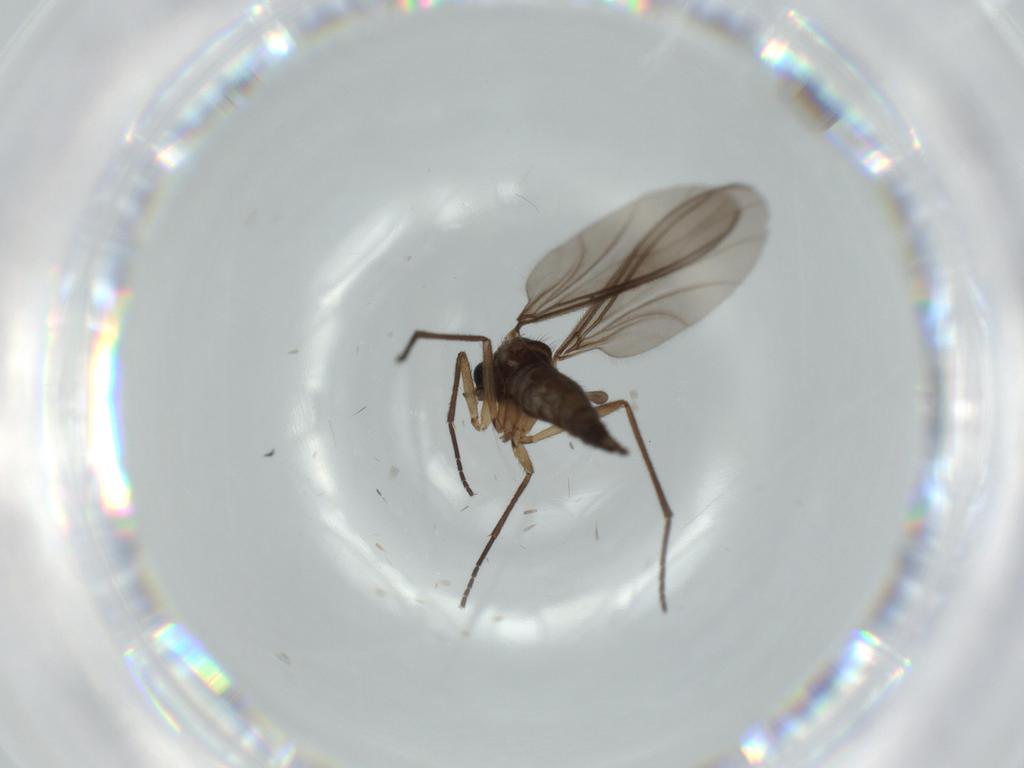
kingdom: Animalia
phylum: Arthropoda
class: Insecta
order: Diptera
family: Sciaridae
